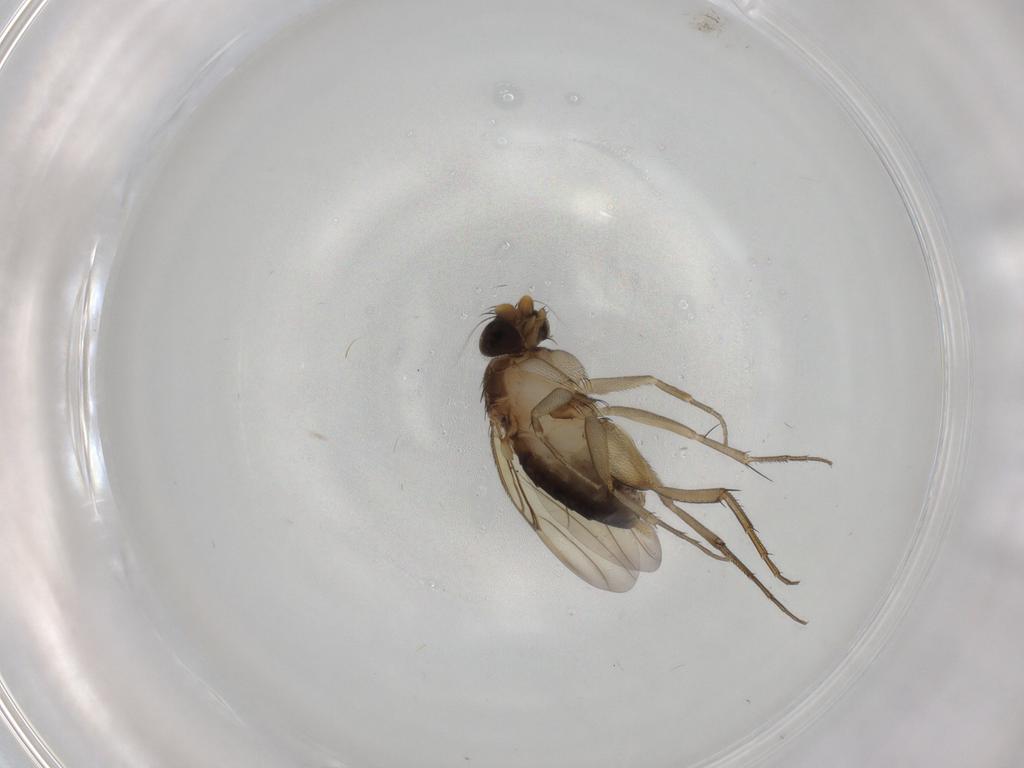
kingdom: Animalia
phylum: Arthropoda
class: Insecta
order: Diptera
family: Phoridae
